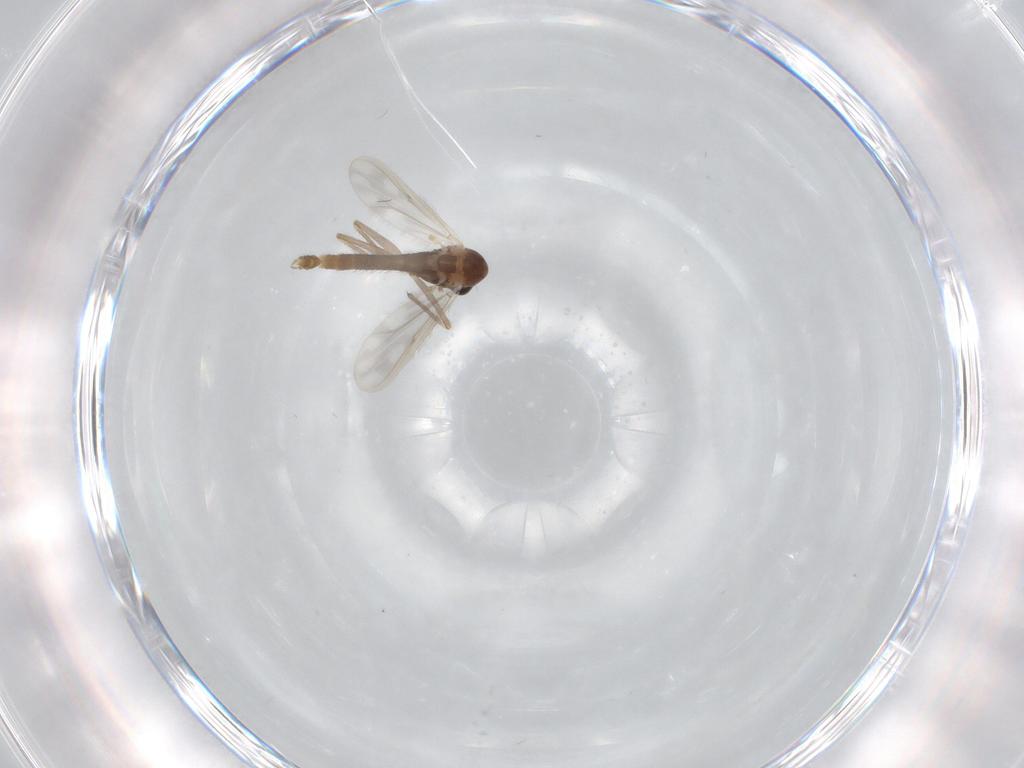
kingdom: Animalia
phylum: Arthropoda
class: Insecta
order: Diptera
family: Chironomidae
